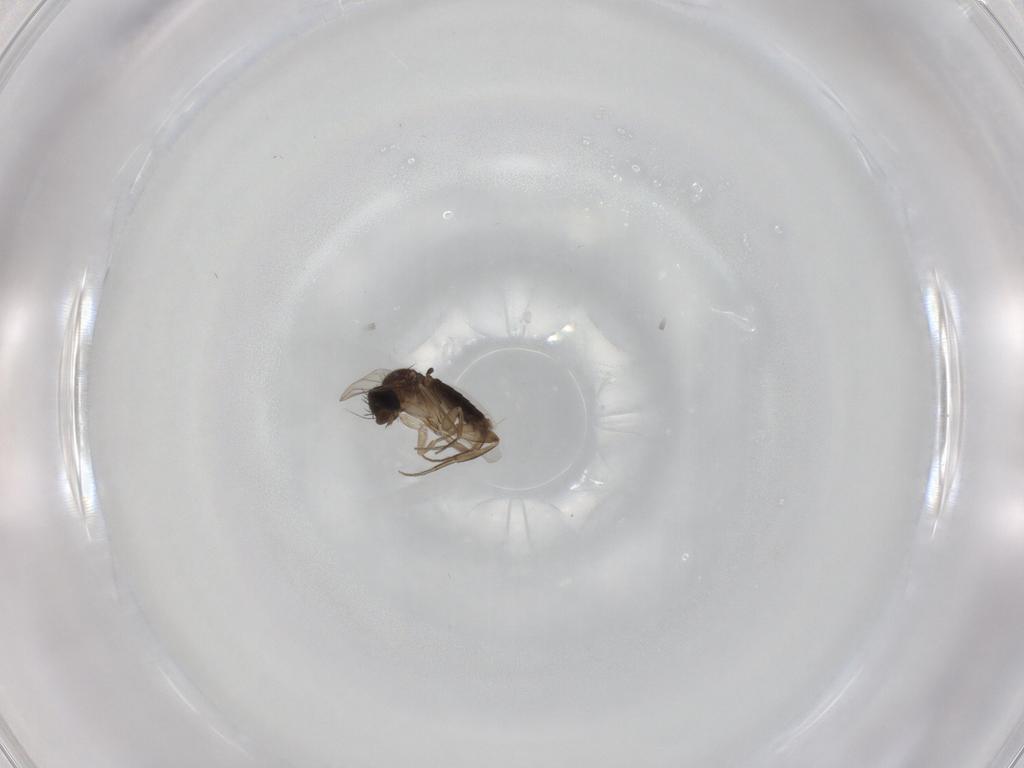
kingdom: Animalia
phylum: Arthropoda
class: Insecta
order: Diptera
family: Phoridae
